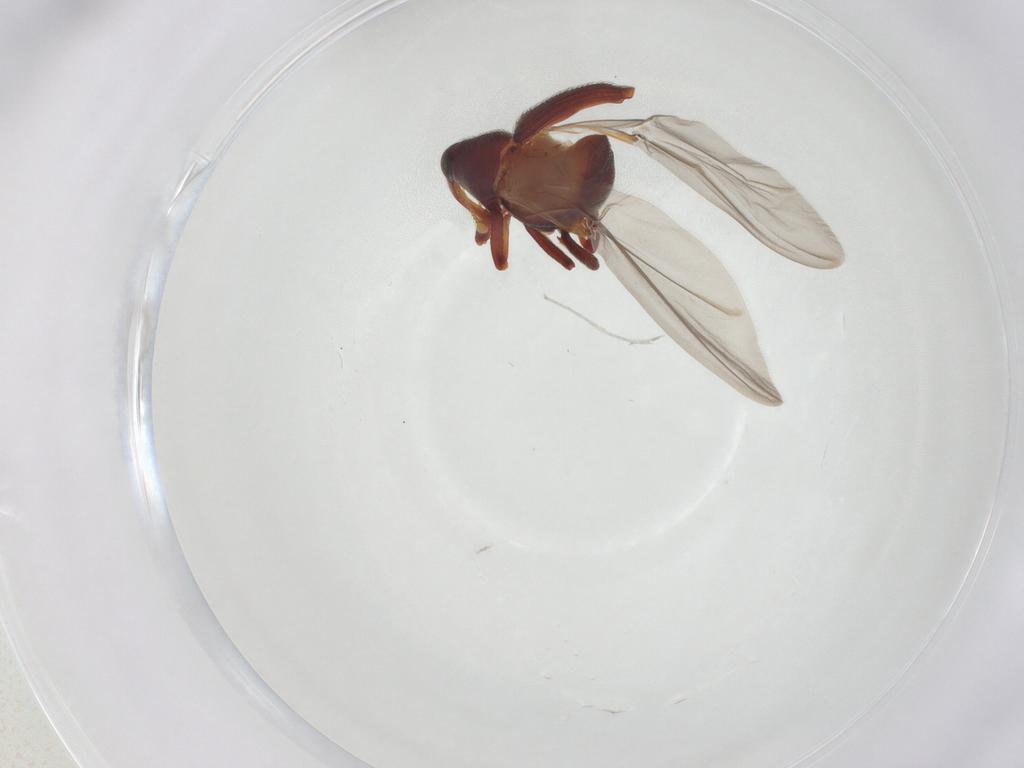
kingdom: Animalia
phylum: Arthropoda
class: Insecta
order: Coleoptera
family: Curculionidae
